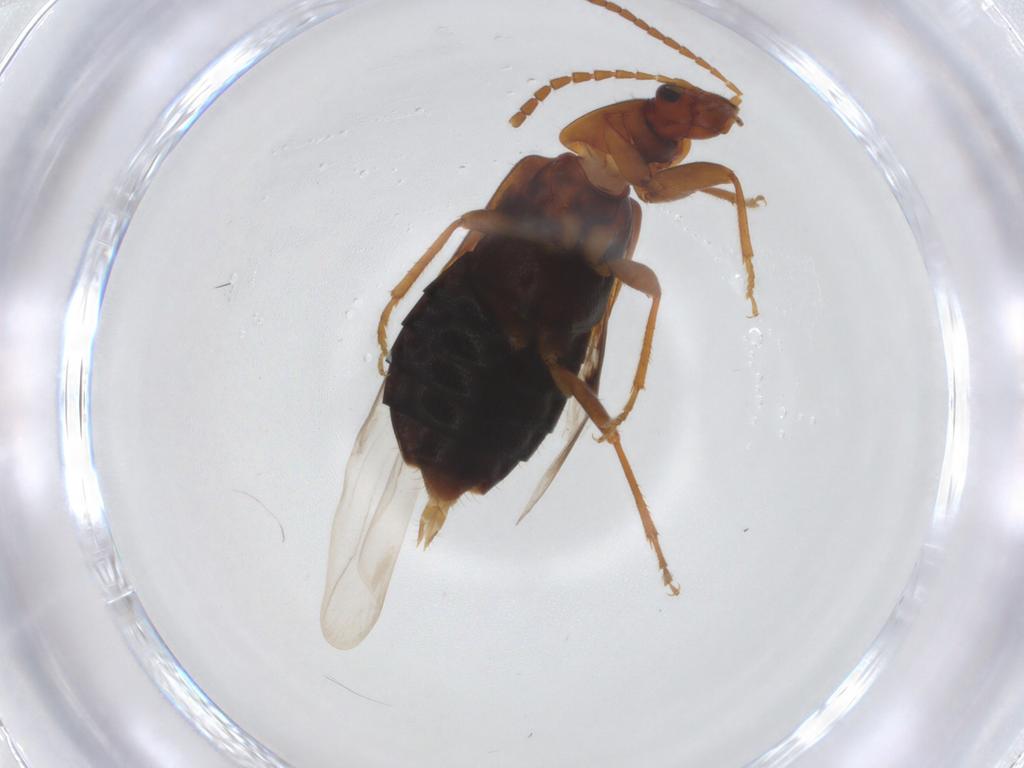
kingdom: Animalia
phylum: Arthropoda
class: Insecta
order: Coleoptera
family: Staphylinidae
